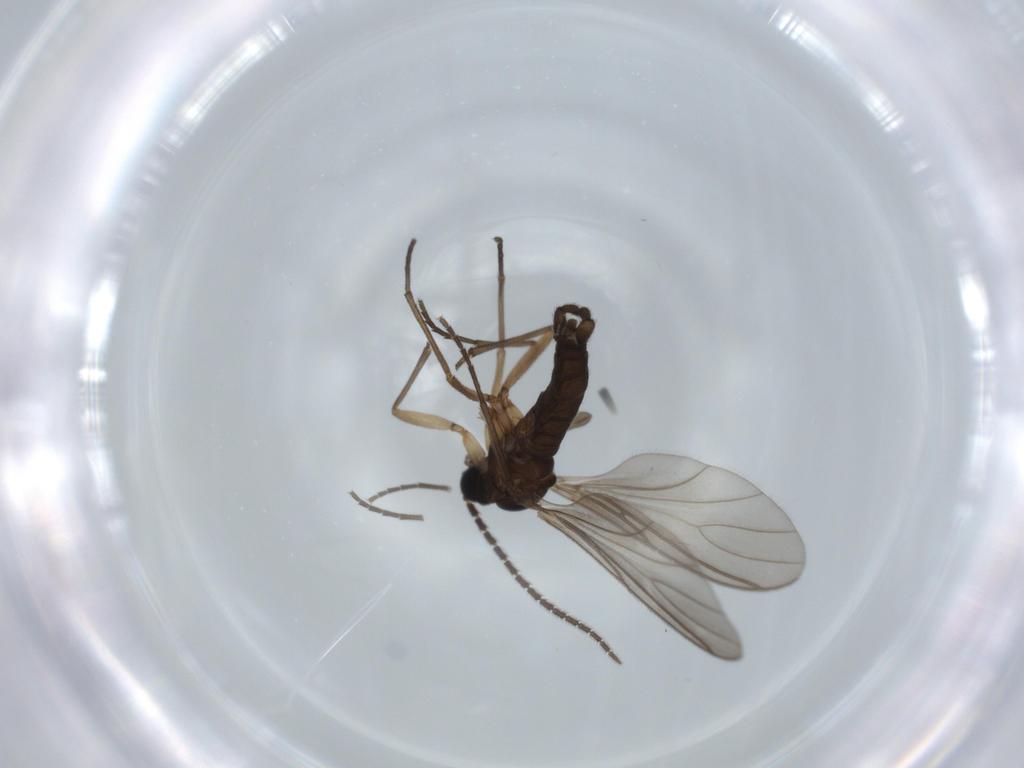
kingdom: Animalia
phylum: Arthropoda
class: Insecta
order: Diptera
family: Sciaridae
